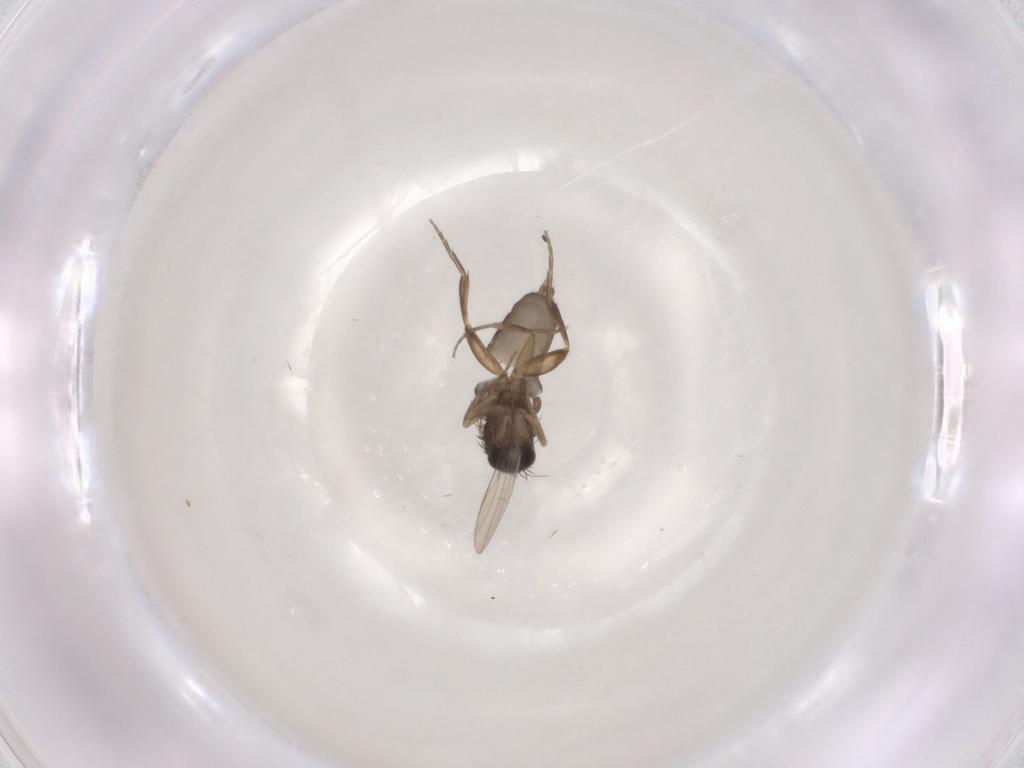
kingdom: Animalia
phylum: Arthropoda
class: Insecta
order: Diptera
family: Phoridae
